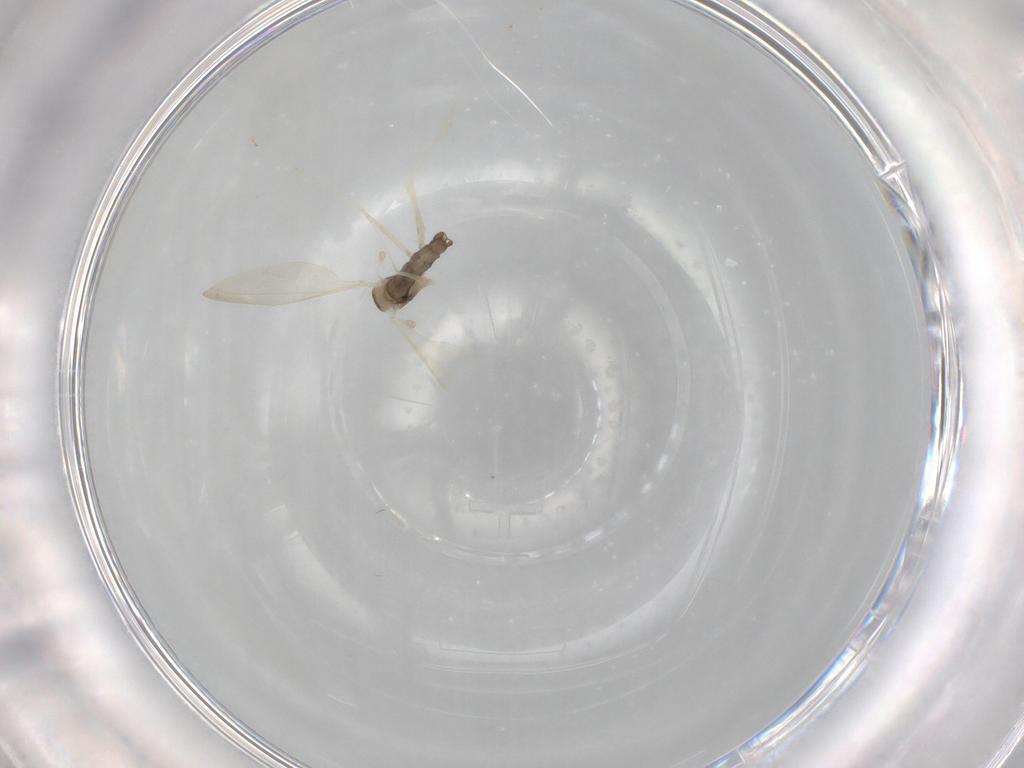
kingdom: Animalia
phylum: Arthropoda
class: Insecta
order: Diptera
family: Cecidomyiidae
